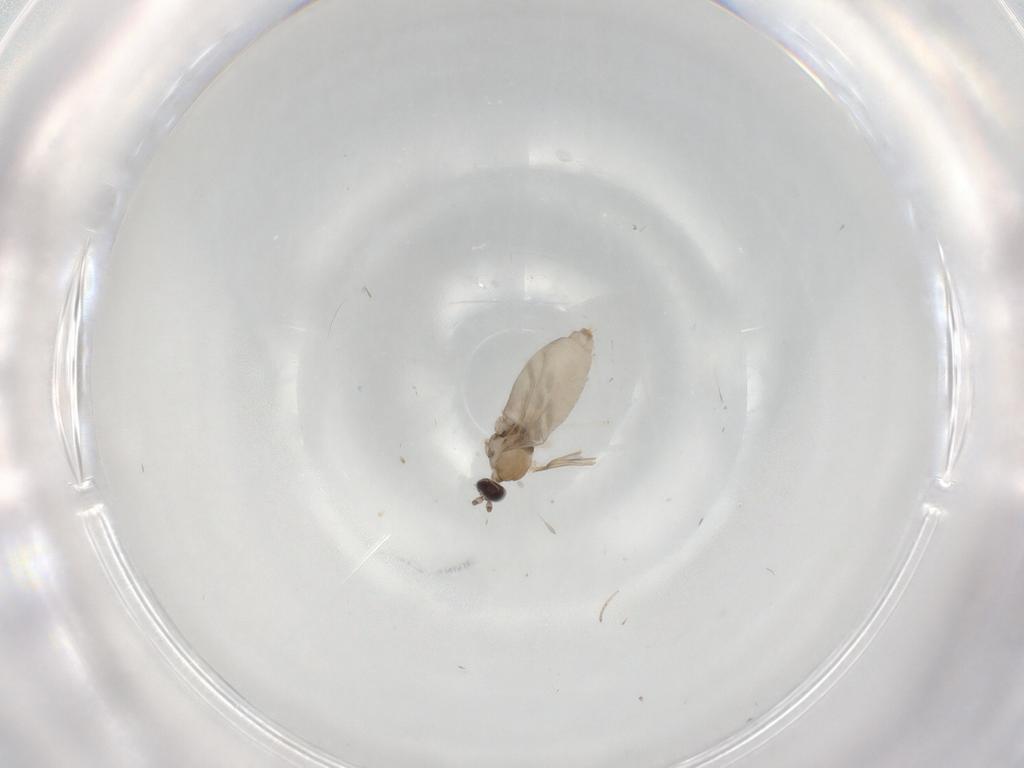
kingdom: Animalia
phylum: Arthropoda
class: Insecta
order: Diptera
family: Cecidomyiidae
